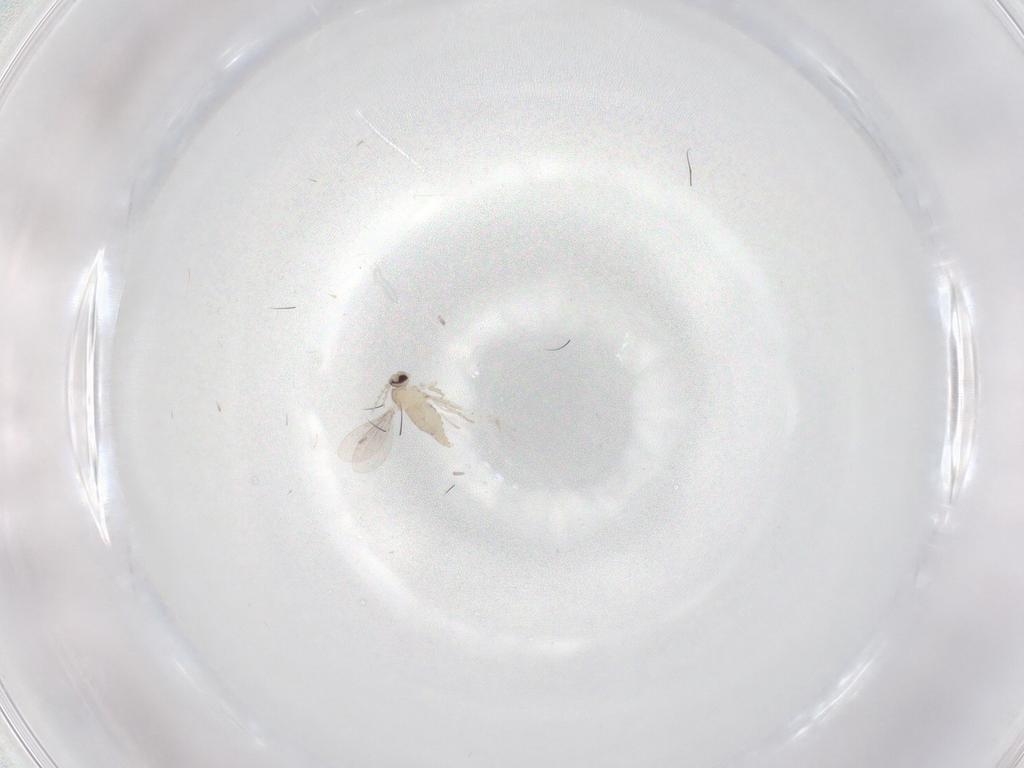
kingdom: Animalia
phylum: Arthropoda
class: Insecta
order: Diptera
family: Cecidomyiidae
